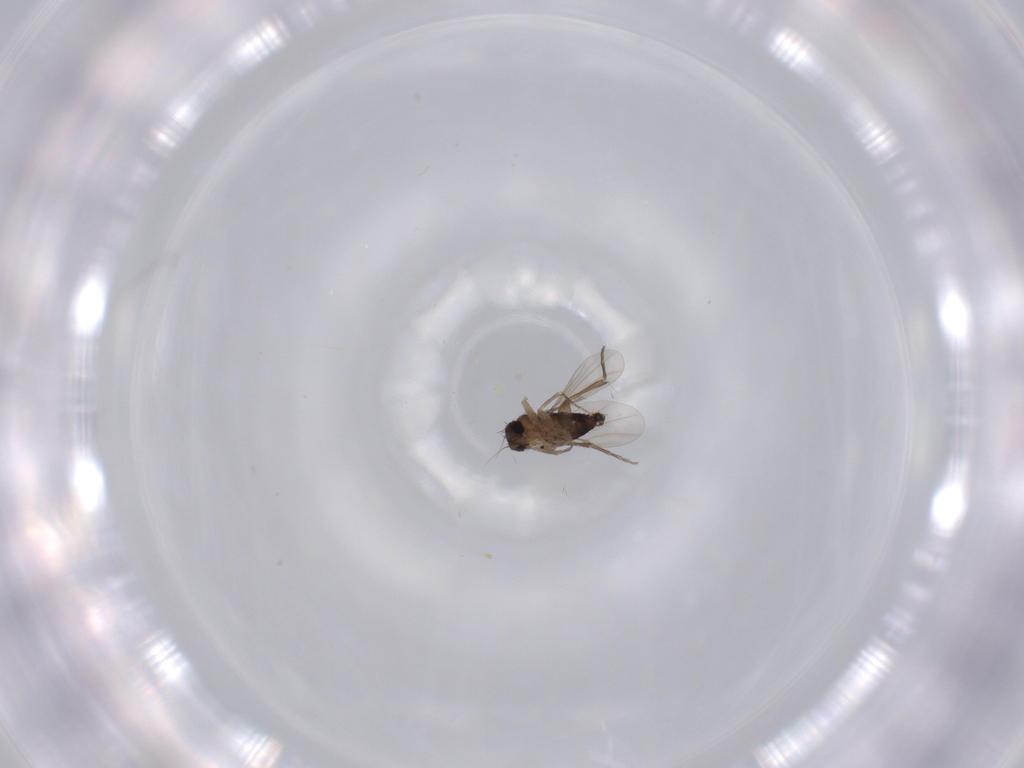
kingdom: Animalia
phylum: Arthropoda
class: Insecta
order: Diptera
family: Phoridae
